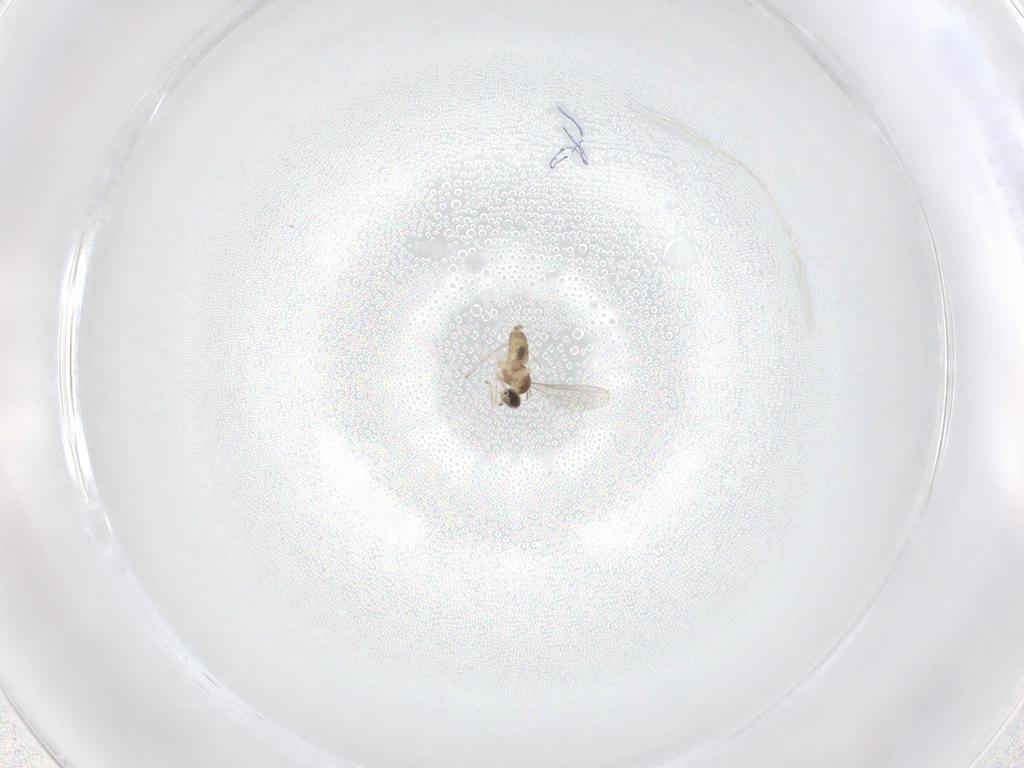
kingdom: Animalia
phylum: Arthropoda
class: Insecta
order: Diptera
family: Cecidomyiidae
